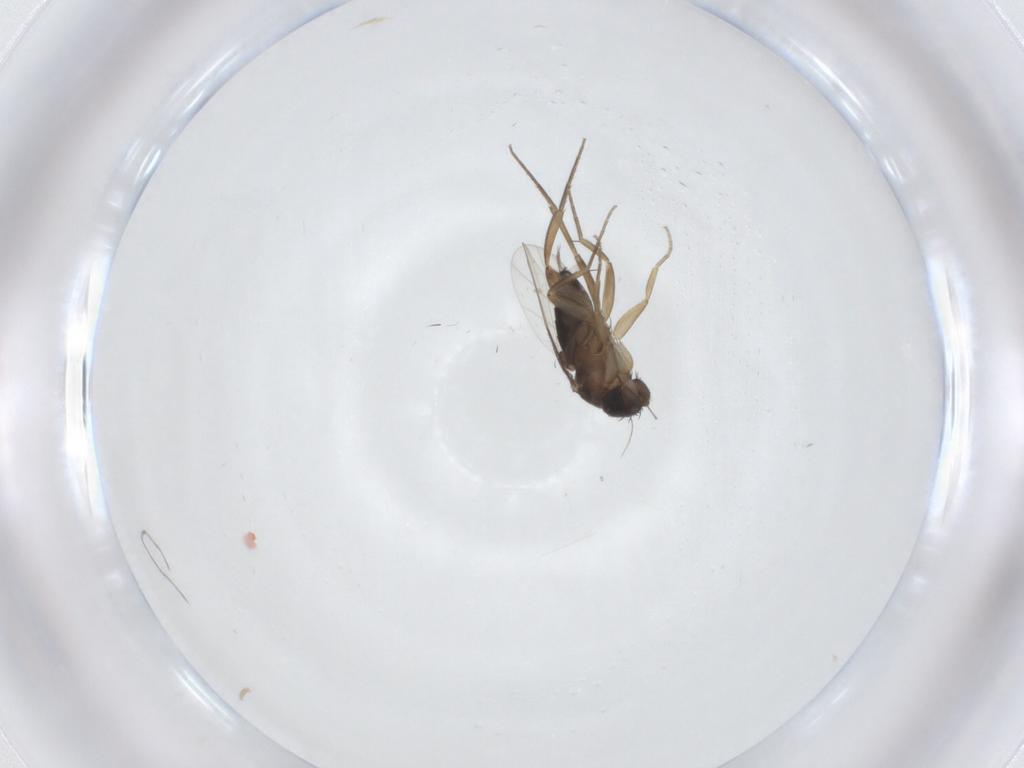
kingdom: Animalia
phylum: Arthropoda
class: Insecta
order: Diptera
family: Phoridae
